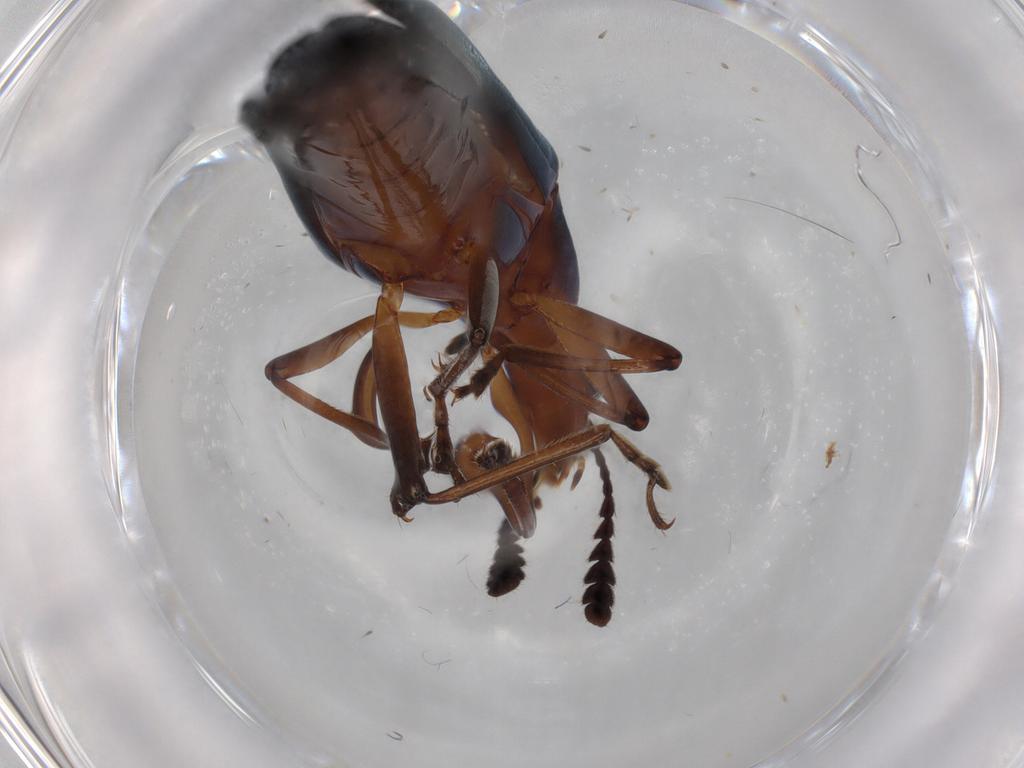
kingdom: Animalia
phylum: Arthropoda
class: Insecta
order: Coleoptera
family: Erotylidae
